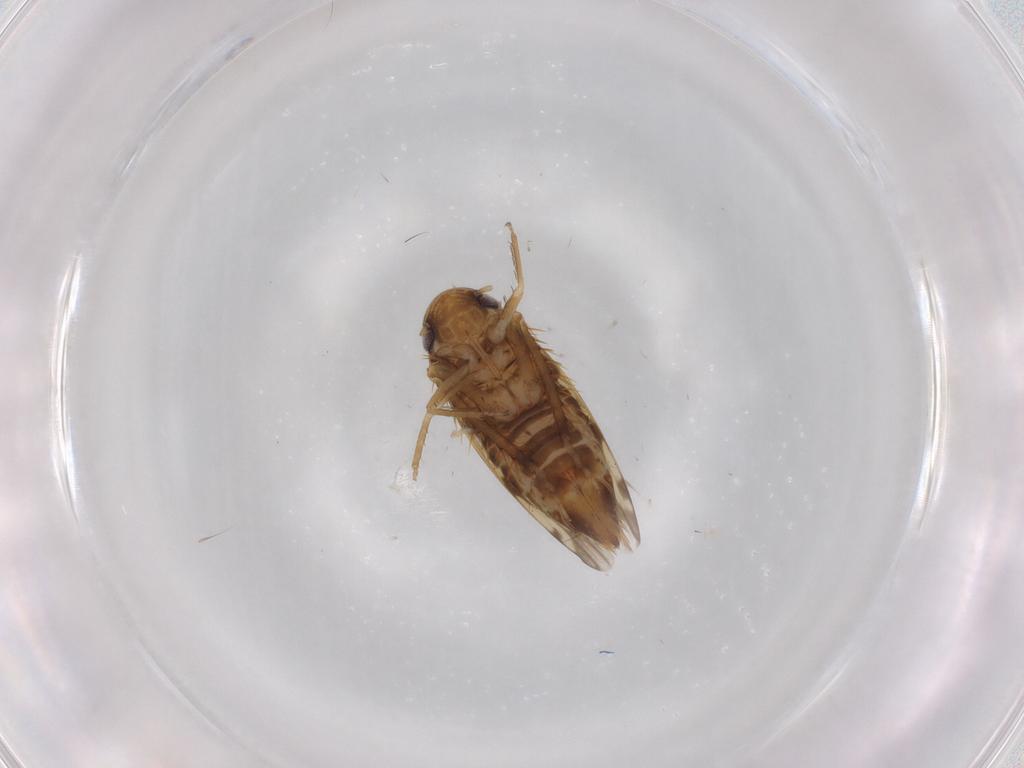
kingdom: Animalia
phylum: Arthropoda
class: Insecta
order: Hemiptera
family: Cicadellidae
